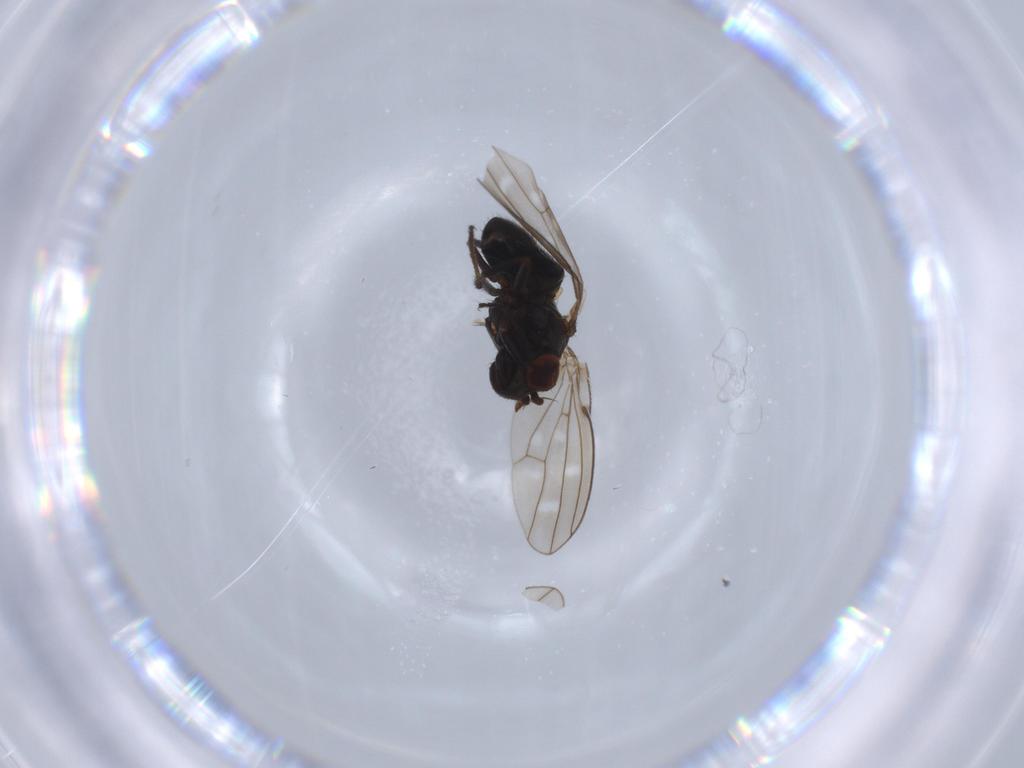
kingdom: Animalia
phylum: Arthropoda
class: Insecta
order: Diptera
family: Ephydridae
